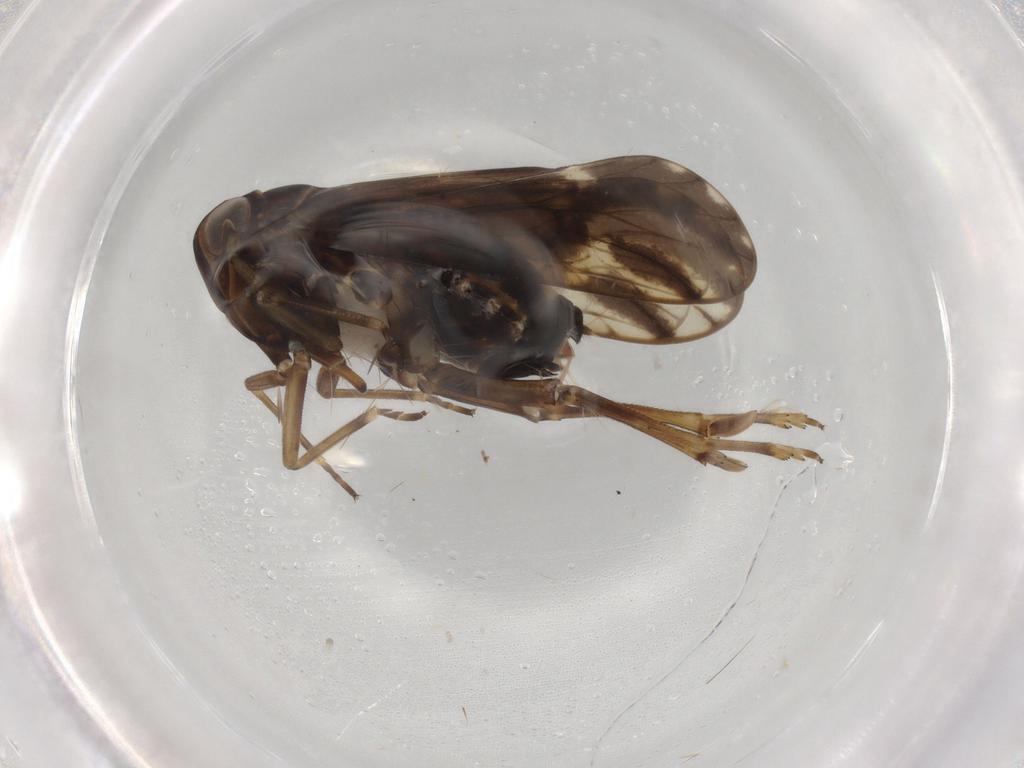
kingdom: Animalia
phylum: Arthropoda
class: Insecta
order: Hemiptera
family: Delphacidae
